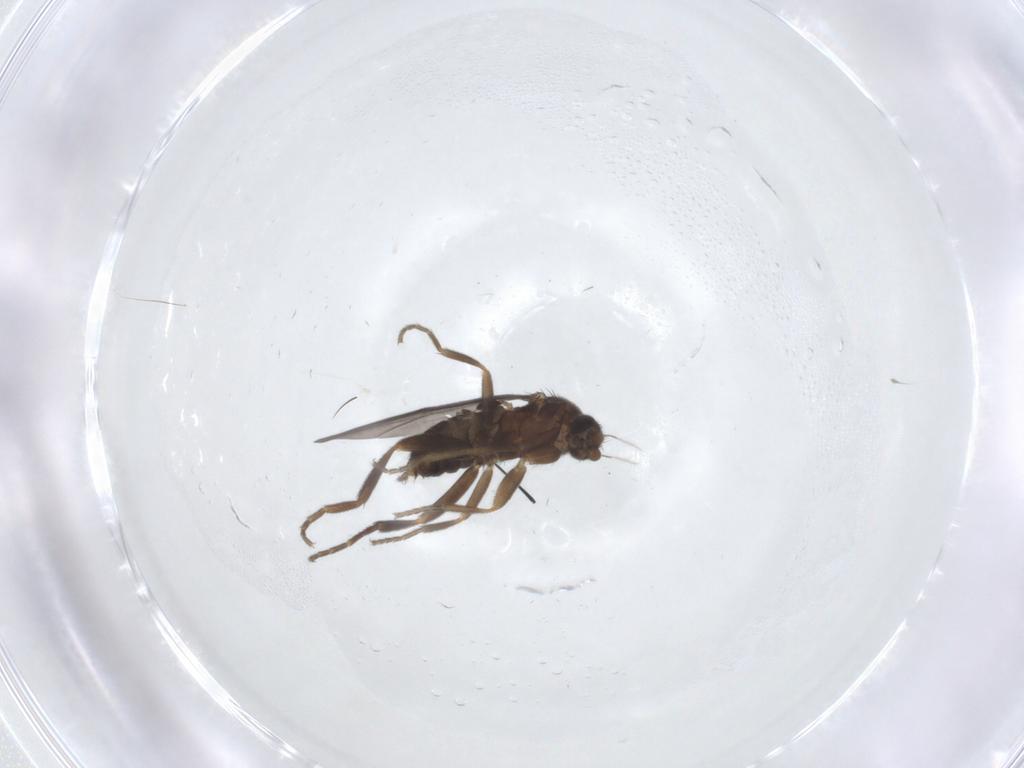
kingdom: Animalia
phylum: Arthropoda
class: Insecta
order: Diptera
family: Phoridae
